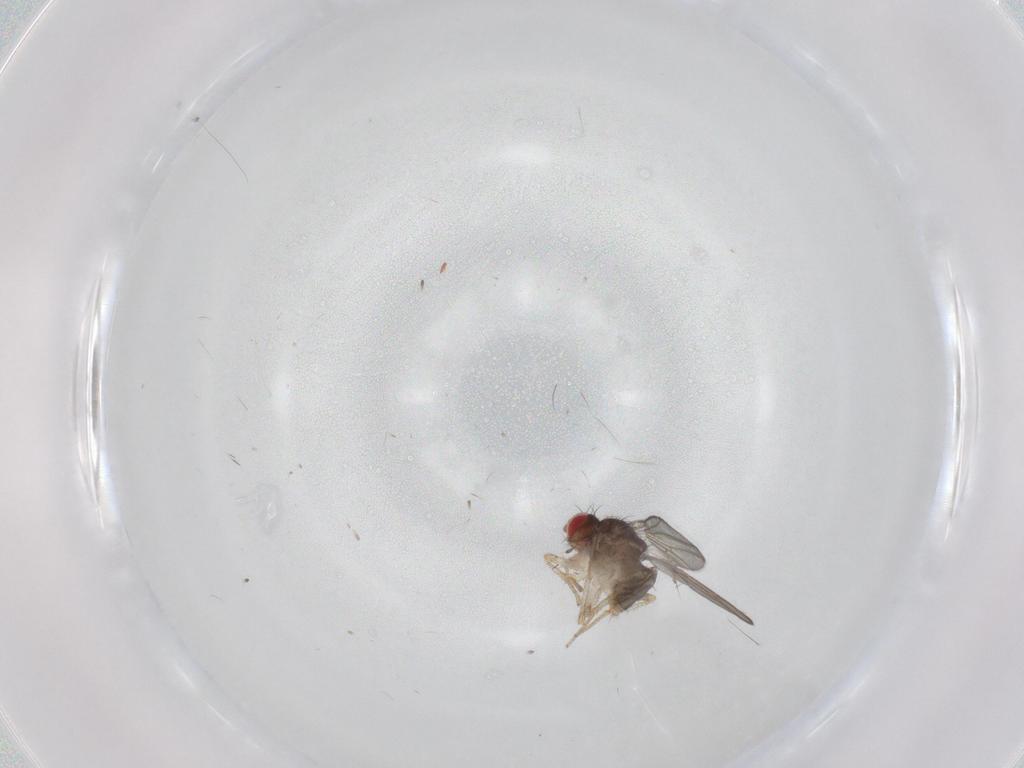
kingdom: Animalia
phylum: Arthropoda
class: Insecta
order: Diptera
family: Drosophilidae
